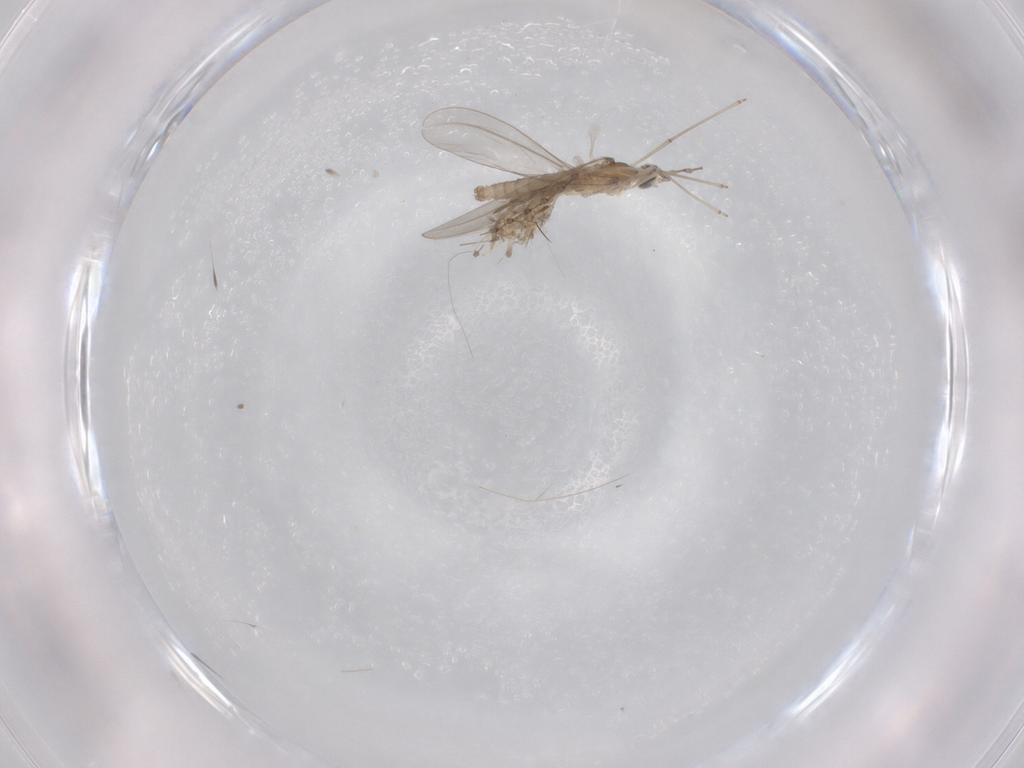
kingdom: Animalia
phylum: Arthropoda
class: Insecta
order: Diptera
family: Cecidomyiidae
